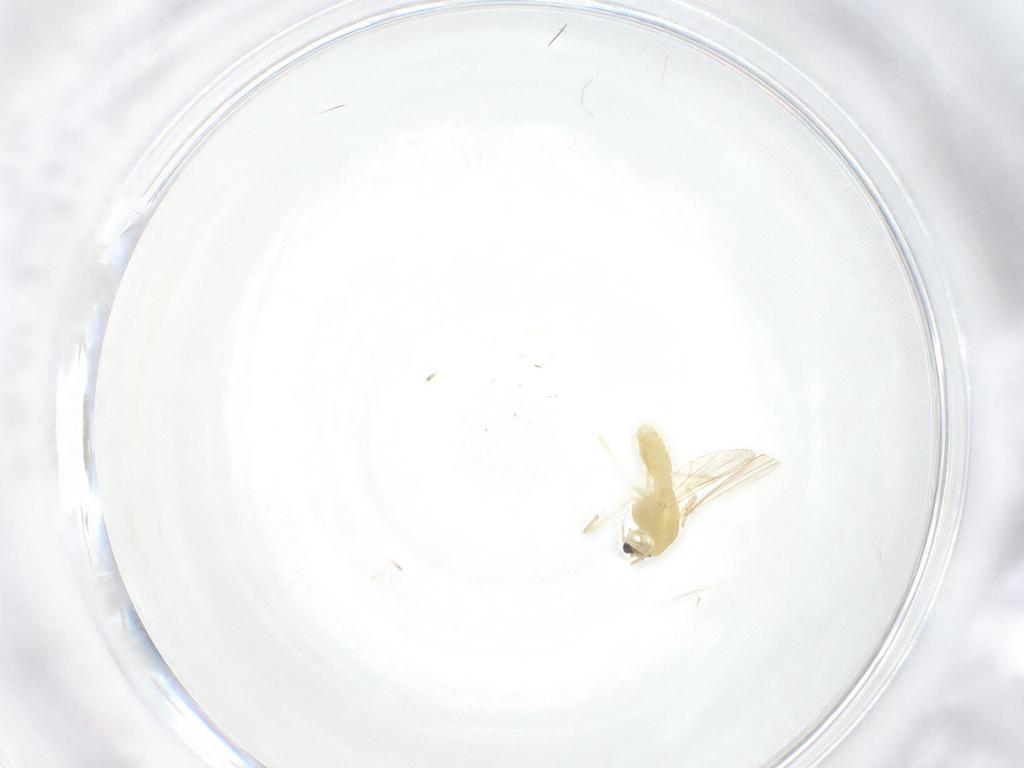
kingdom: Animalia
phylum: Arthropoda
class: Insecta
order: Diptera
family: Chironomidae
